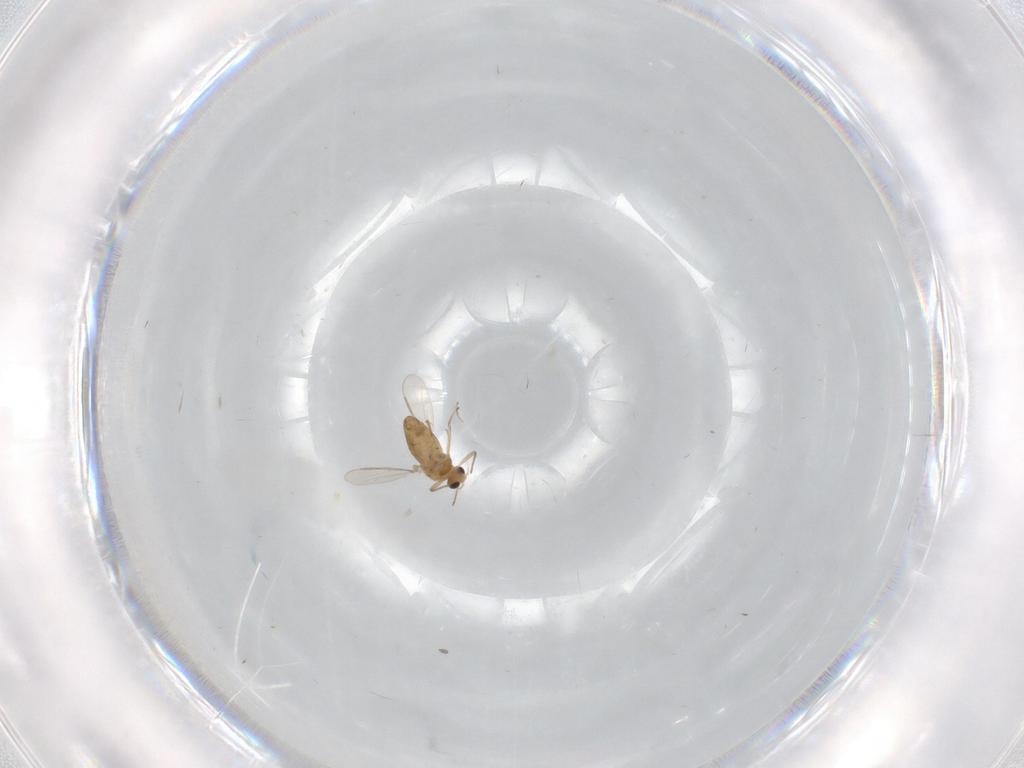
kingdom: Animalia
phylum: Arthropoda
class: Insecta
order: Diptera
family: Chironomidae
